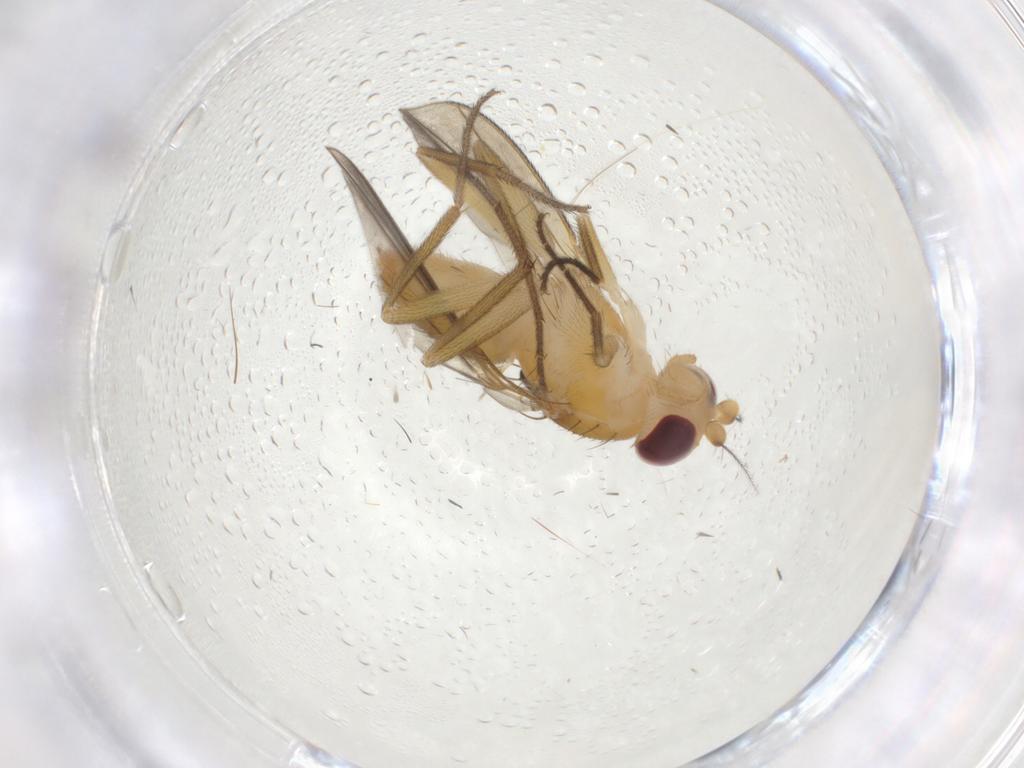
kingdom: Animalia
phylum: Arthropoda
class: Insecta
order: Diptera
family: Clusiidae
